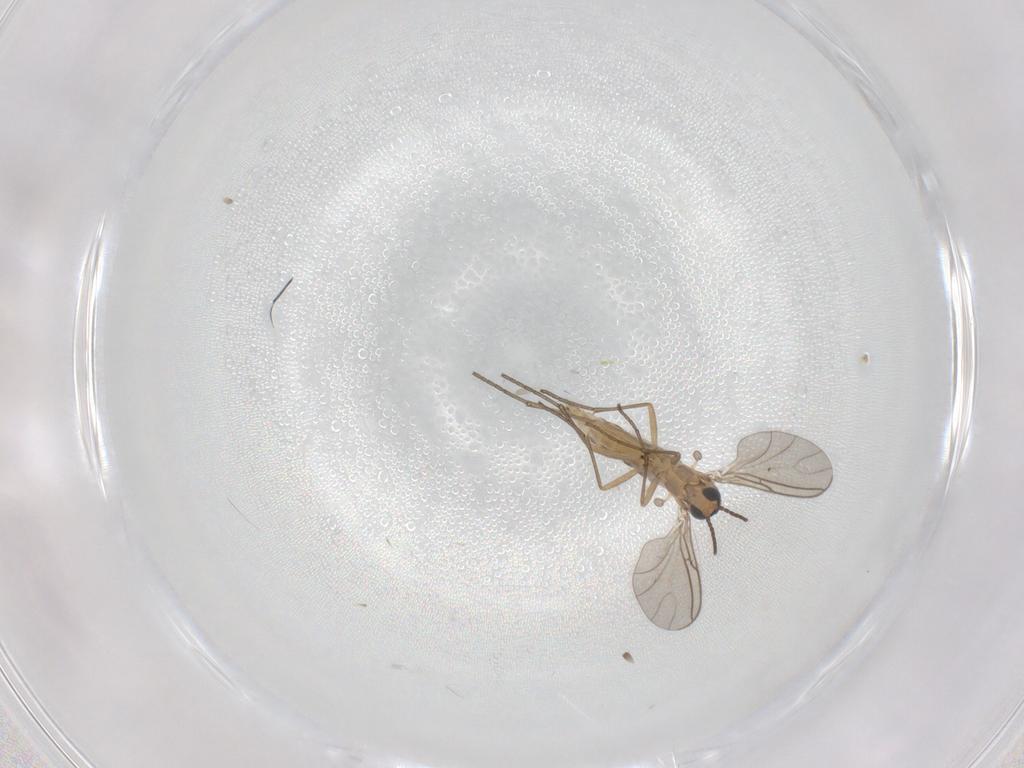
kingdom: Animalia
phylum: Arthropoda
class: Insecta
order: Diptera
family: Sciaridae
